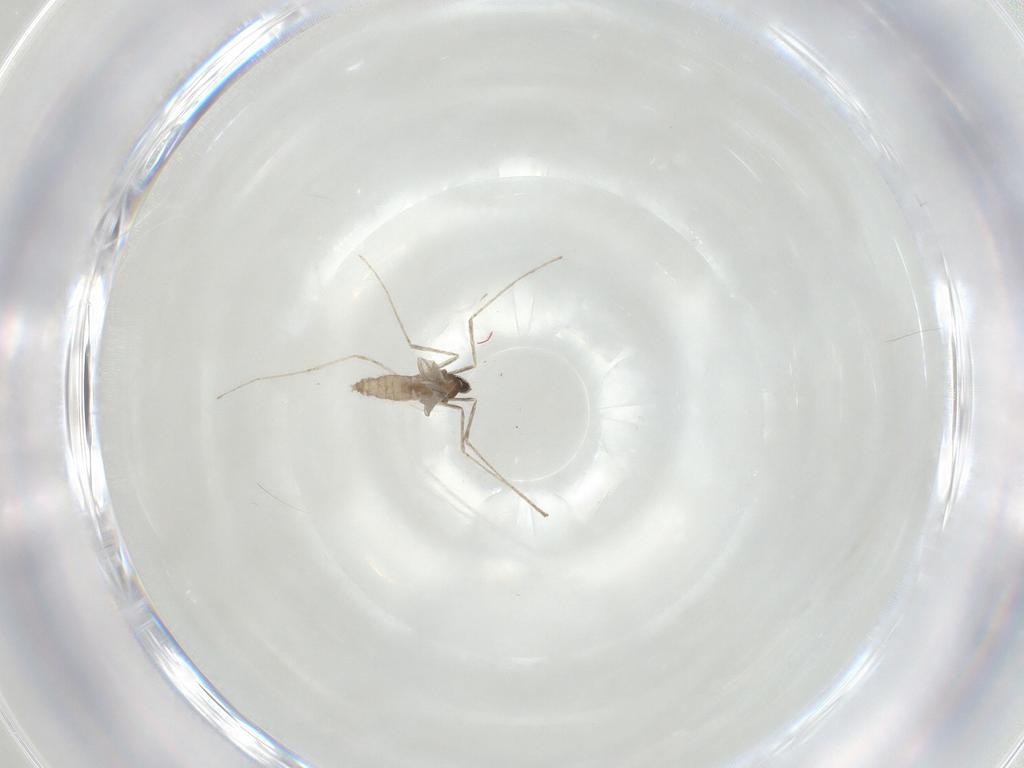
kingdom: Animalia
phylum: Arthropoda
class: Insecta
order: Diptera
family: Cecidomyiidae
